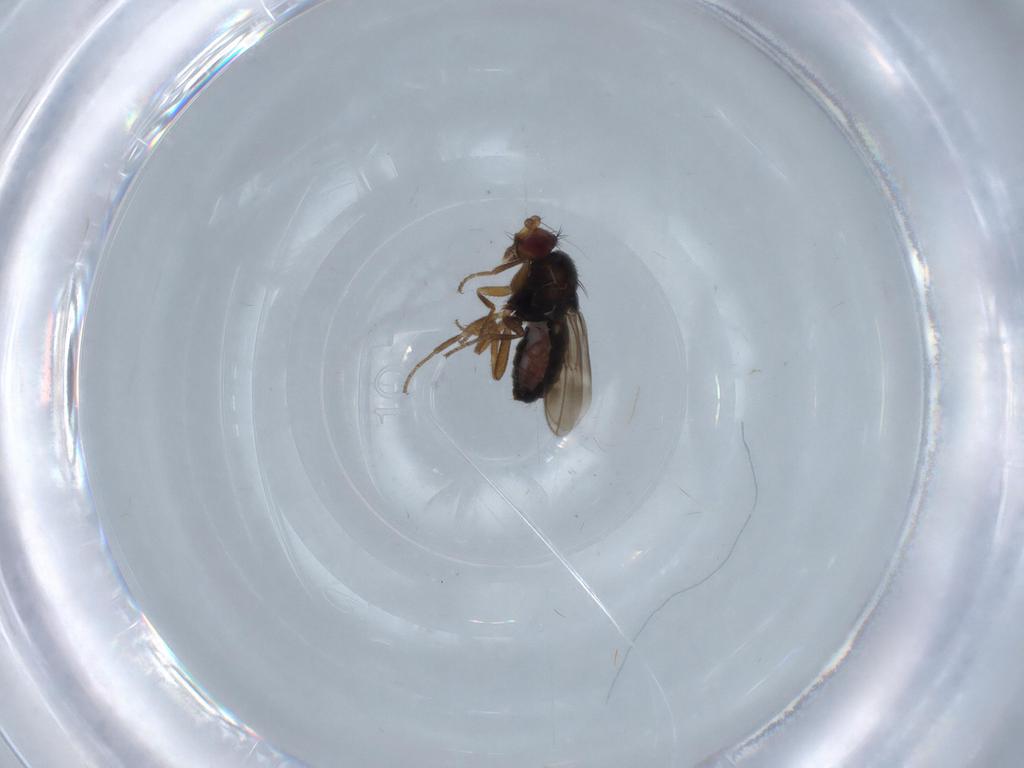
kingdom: Animalia
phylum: Arthropoda
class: Insecta
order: Diptera
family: Sphaeroceridae
